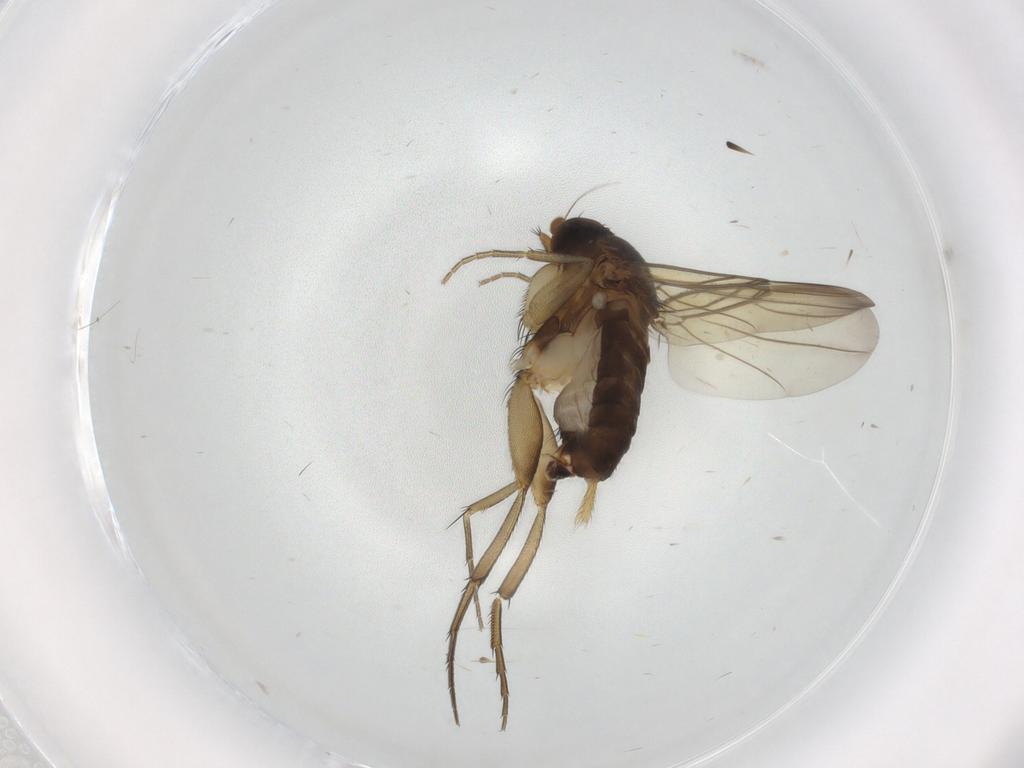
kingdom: Animalia
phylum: Arthropoda
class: Insecta
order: Diptera
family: Phoridae
